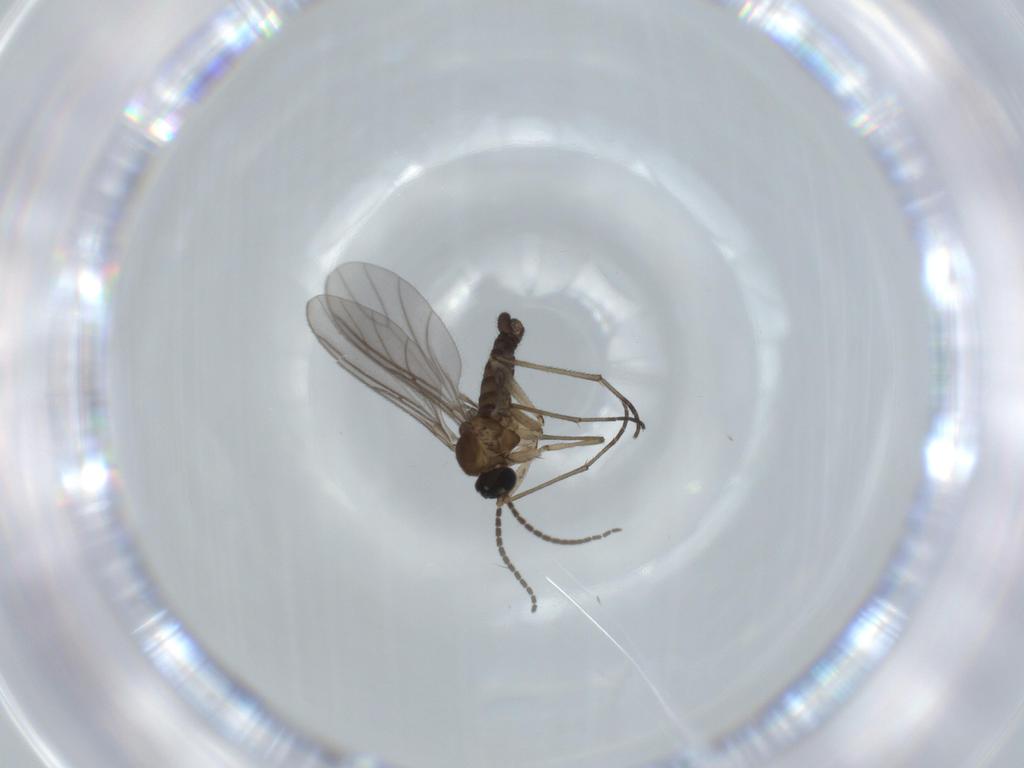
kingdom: Animalia
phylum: Arthropoda
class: Insecta
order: Diptera
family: Sciaridae
